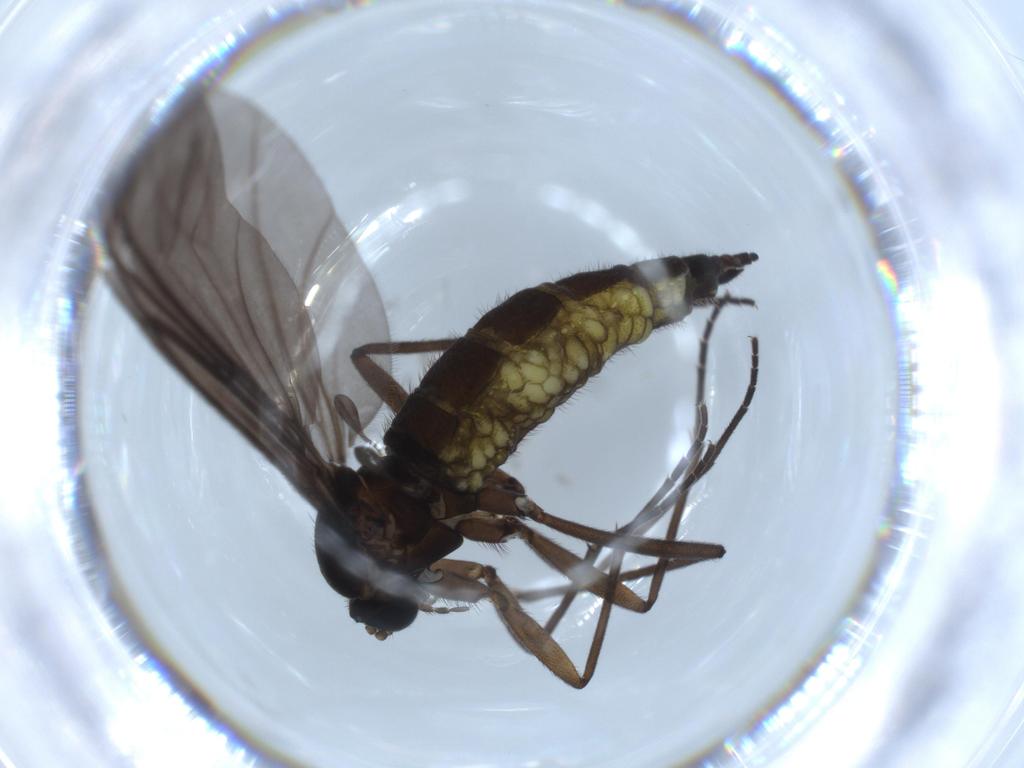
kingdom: Animalia
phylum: Arthropoda
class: Insecta
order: Diptera
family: Sciaridae
